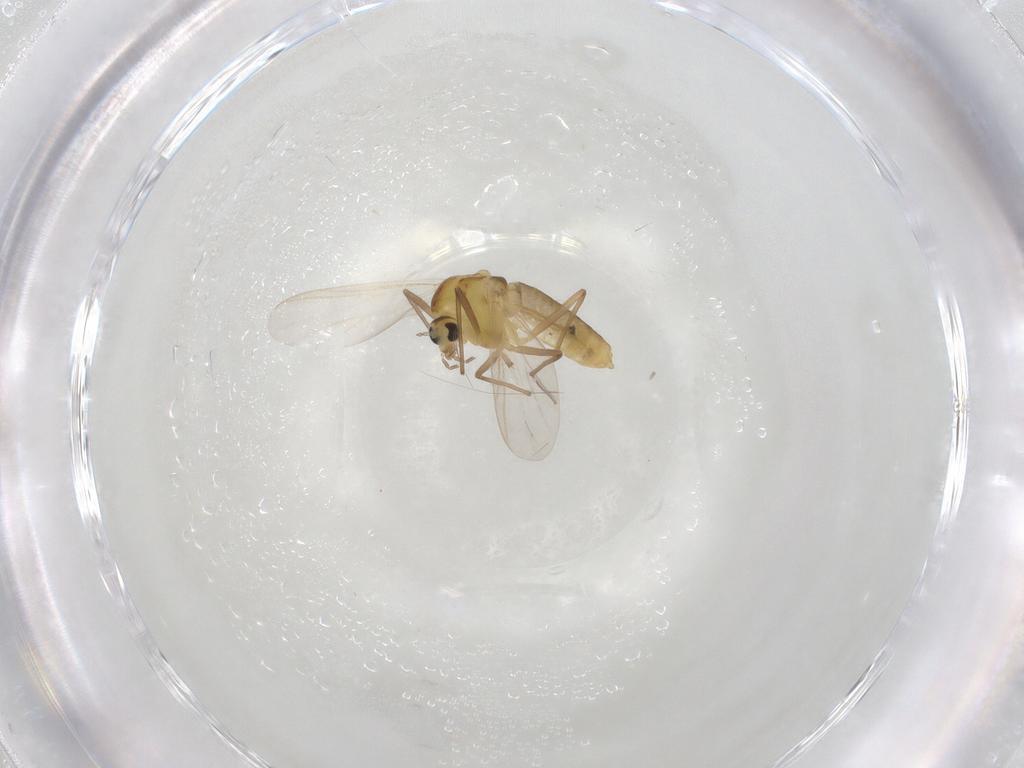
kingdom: Animalia
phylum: Arthropoda
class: Insecta
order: Diptera
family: Chironomidae
